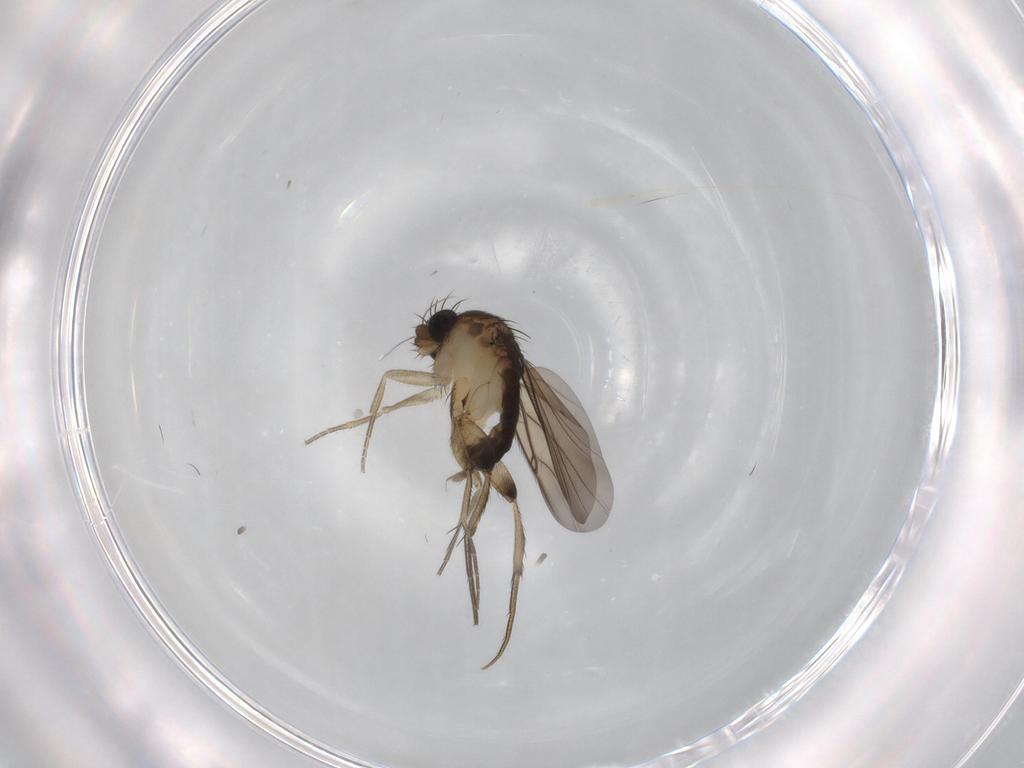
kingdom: Animalia
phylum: Arthropoda
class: Insecta
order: Diptera
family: Phoridae
